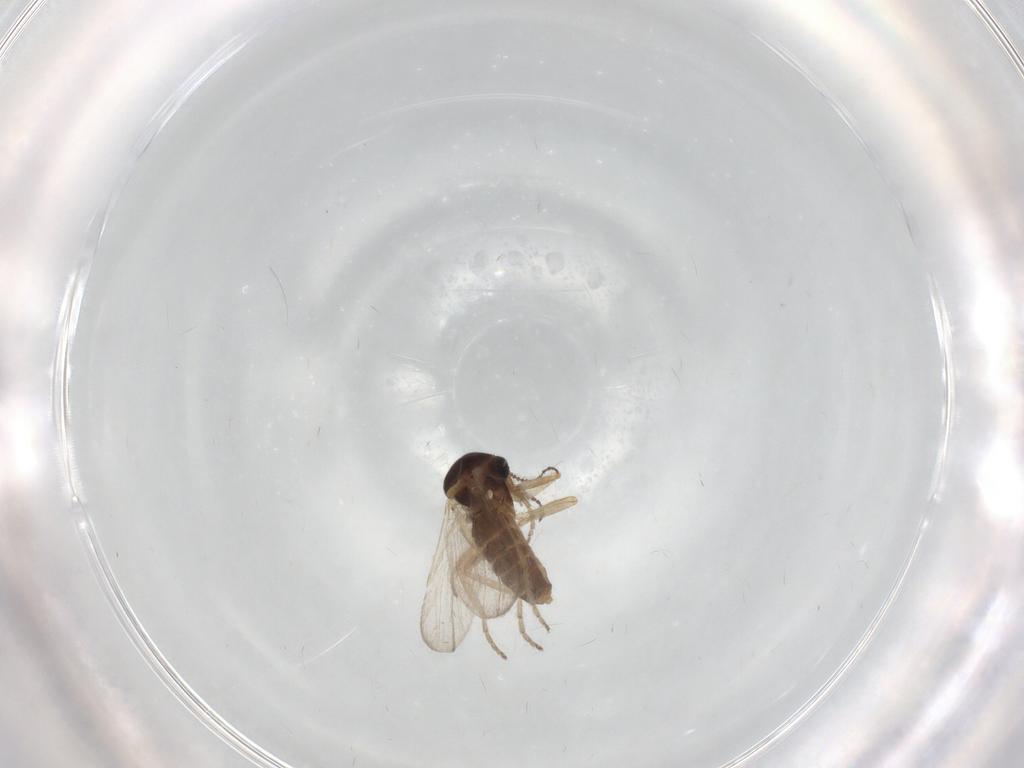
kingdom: Animalia
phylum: Arthropoda
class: Insecta
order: Diptera
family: Ceratopogonidae
